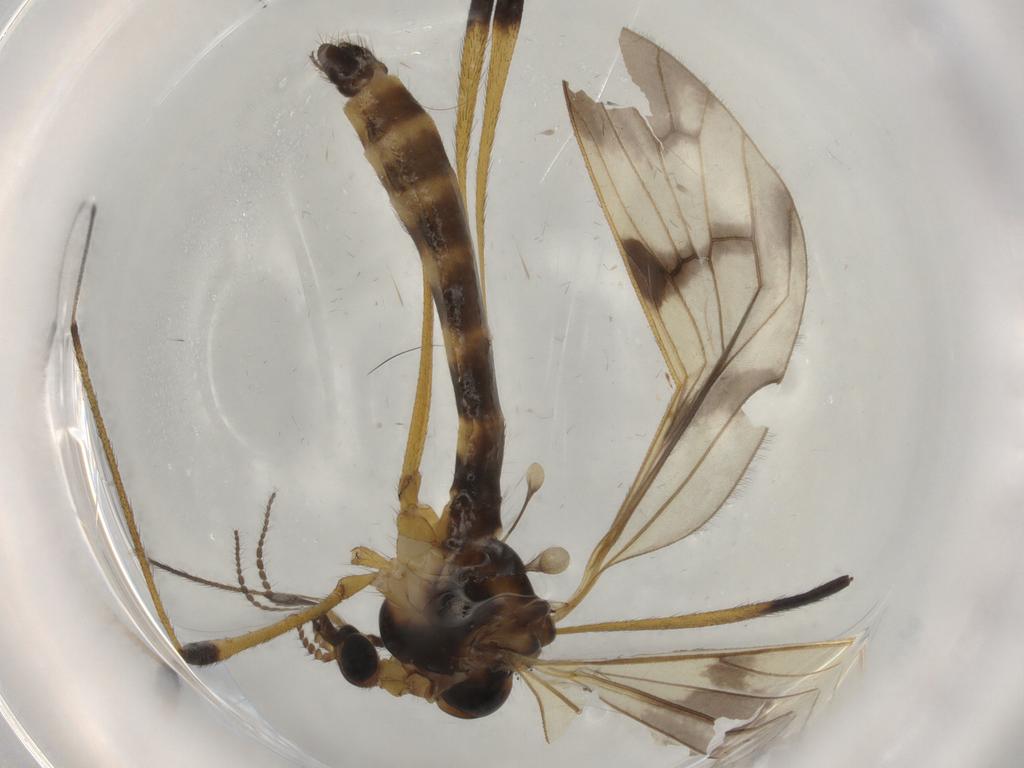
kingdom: Animalia
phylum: Arthropoda
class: Insecta
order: Diptera
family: Limoniidae
